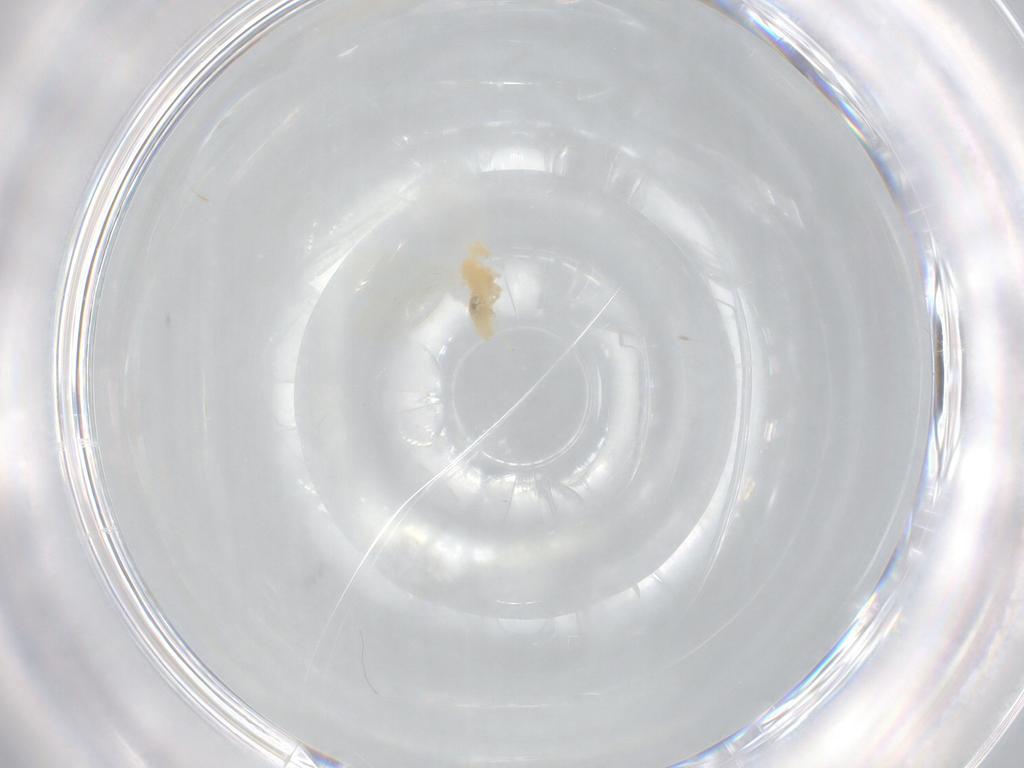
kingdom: Animalia
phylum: Arthropoda
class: Insecta
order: Diptera
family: Cecidomyiidae
